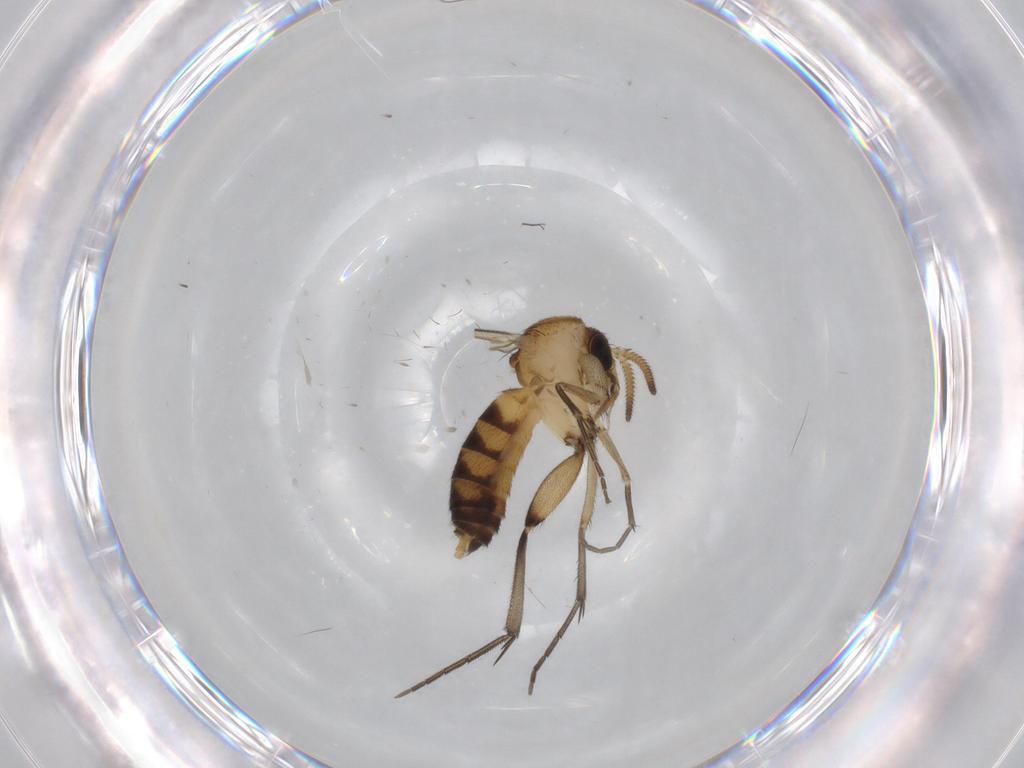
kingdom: Animalia
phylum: Arthropoda
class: Insecta
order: Diptera
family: Mycetophilidae
